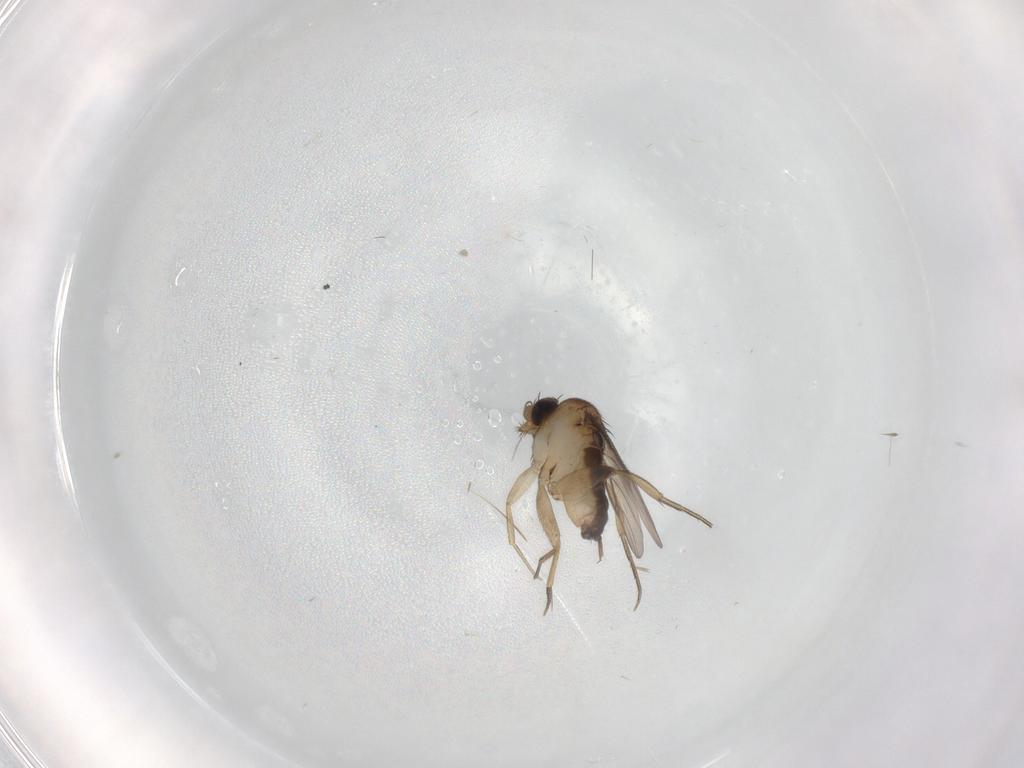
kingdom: Animalia
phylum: Arthropoda
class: Insecta
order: Diptera
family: Phoridae
